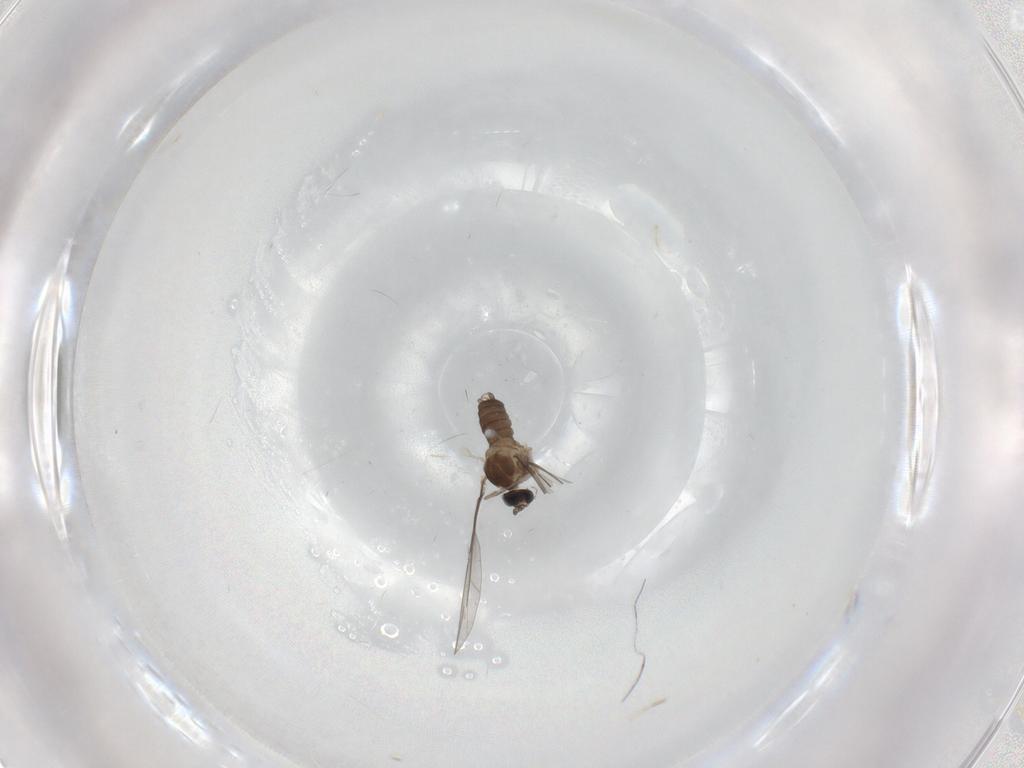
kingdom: Animalia
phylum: Arthropoda
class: Insecta
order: Diptera
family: Cecidomyiidae
